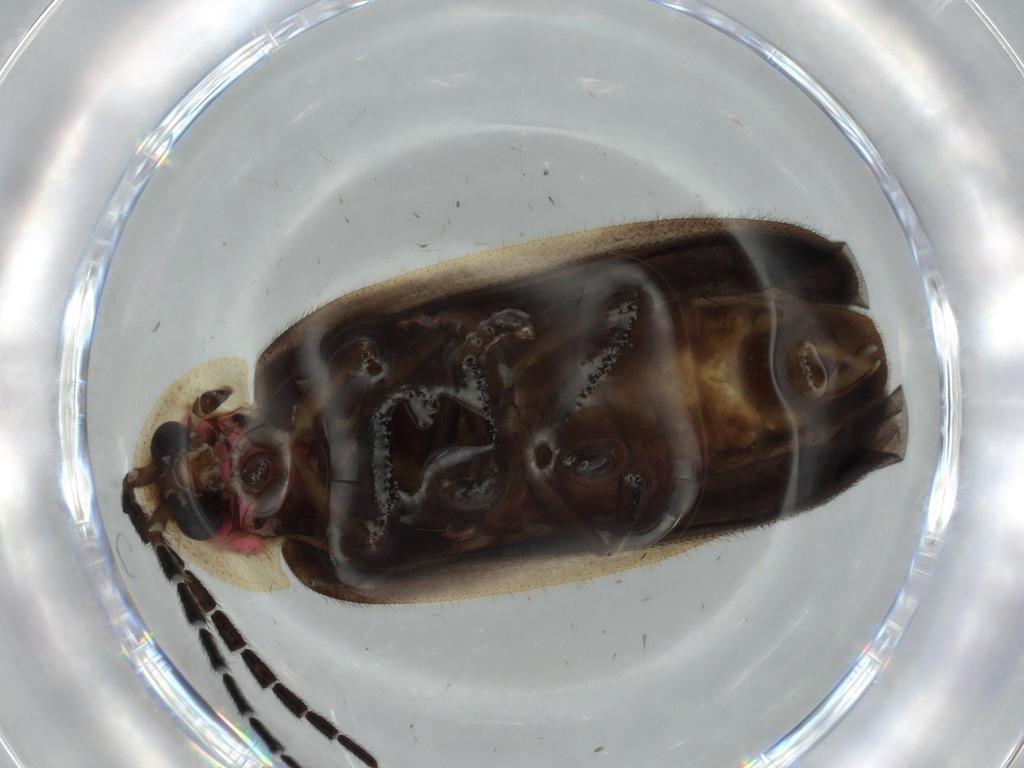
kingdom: Animalia
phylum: Arthropoda
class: Insecta
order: Coleoptera
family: Lampyridae
